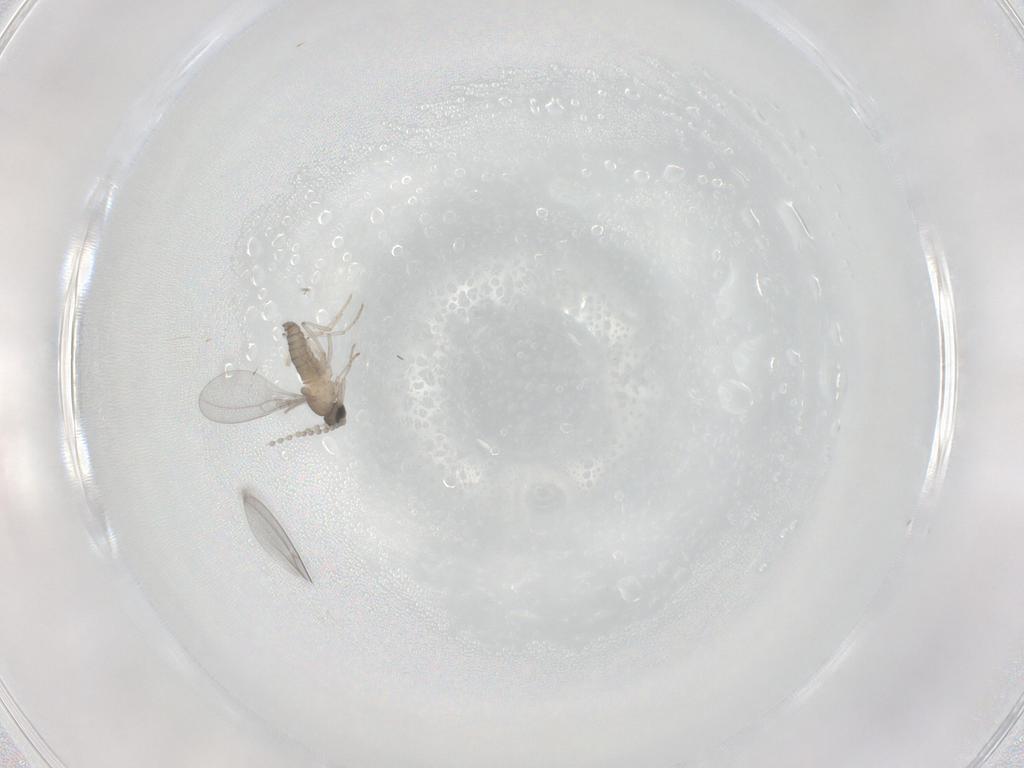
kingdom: Animalia
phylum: Arthropoda
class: Insecta
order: Diptera
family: Cecidomyiidae
